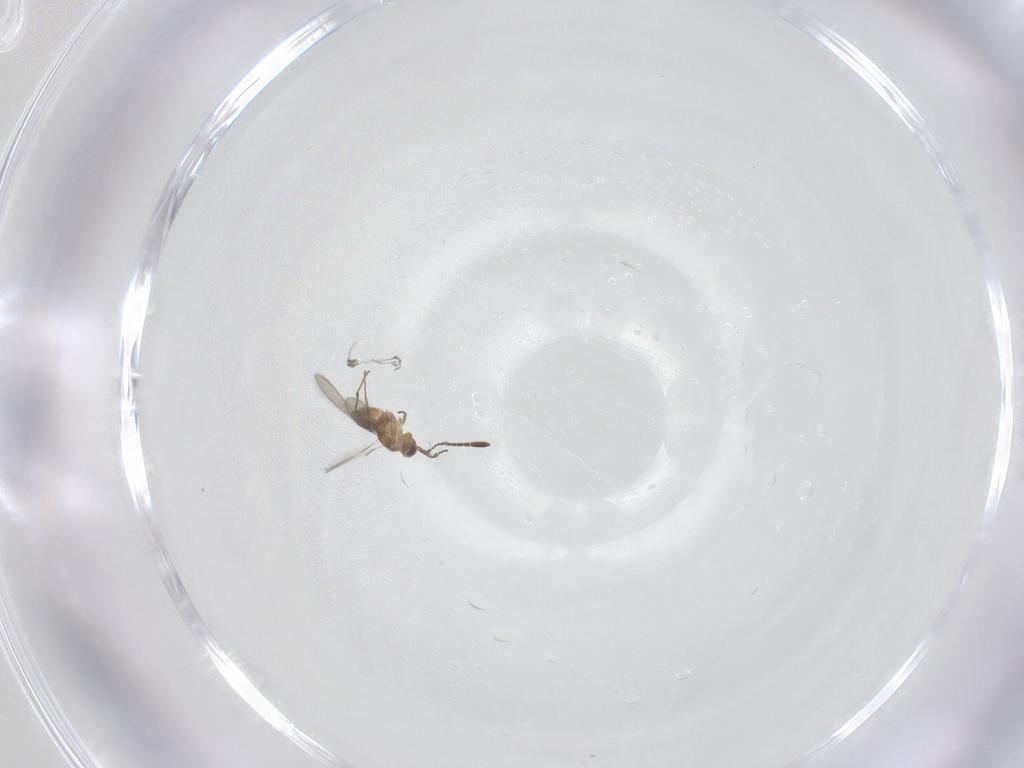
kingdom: Animalia
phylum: Arthropoda
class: Insecta
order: Hymenoptera
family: Mymaridae
